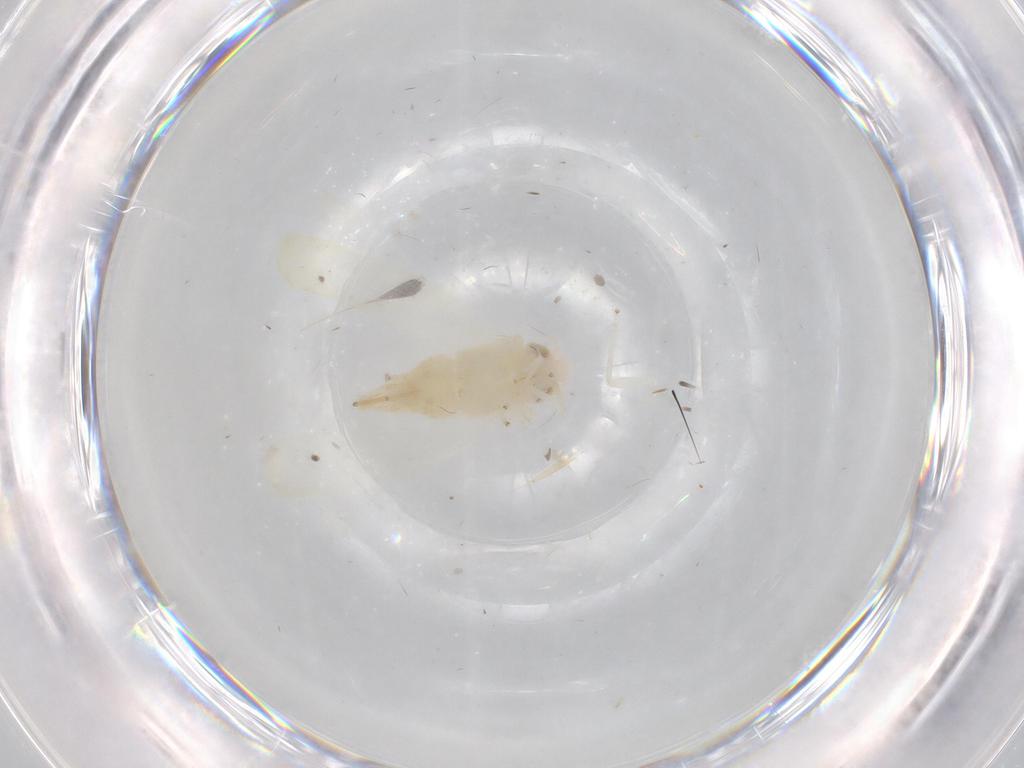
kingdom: Animalia
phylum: Arthropoda
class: Insecta
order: Hemiptera
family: Cicadellidae
